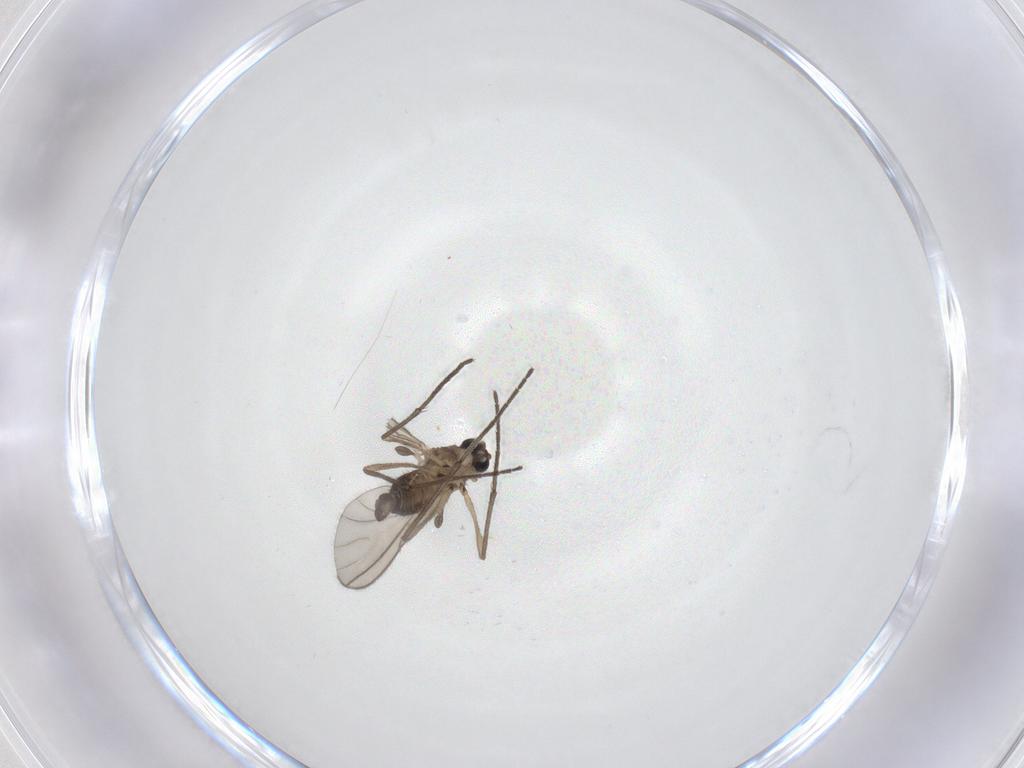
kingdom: Animalia
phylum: Arthropoda
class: Insecta
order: Diptera
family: Sciaridae
